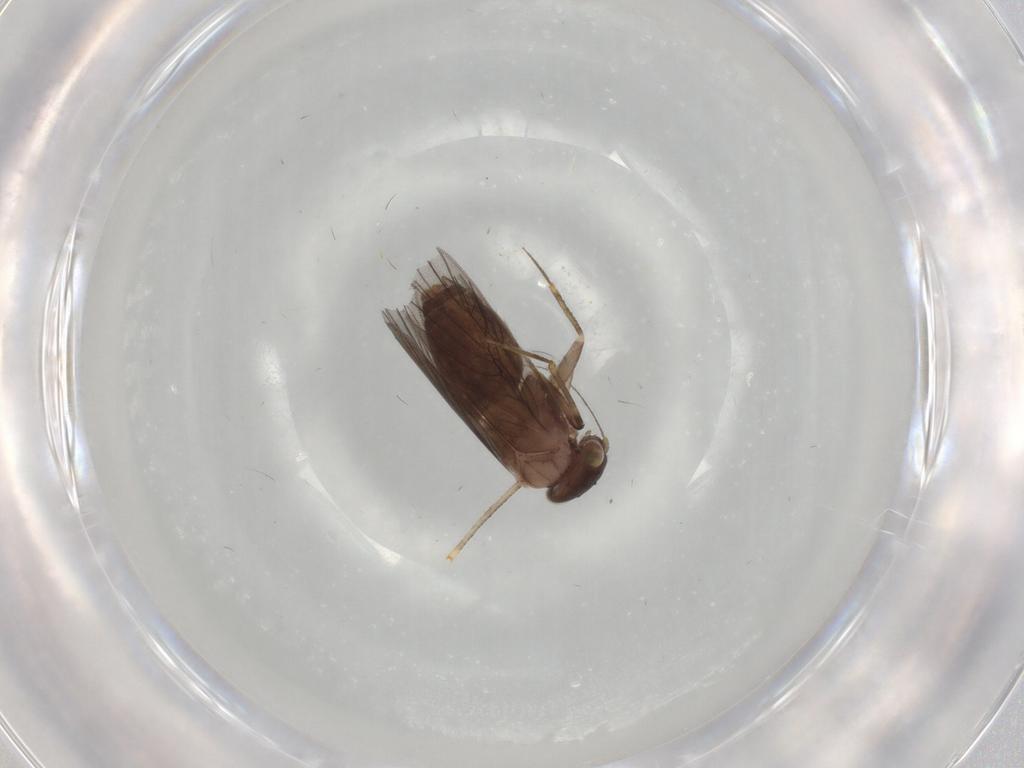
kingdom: Animalia
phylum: Arthropoda
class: Insecta
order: Psocodea
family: Lepidopsocidae
